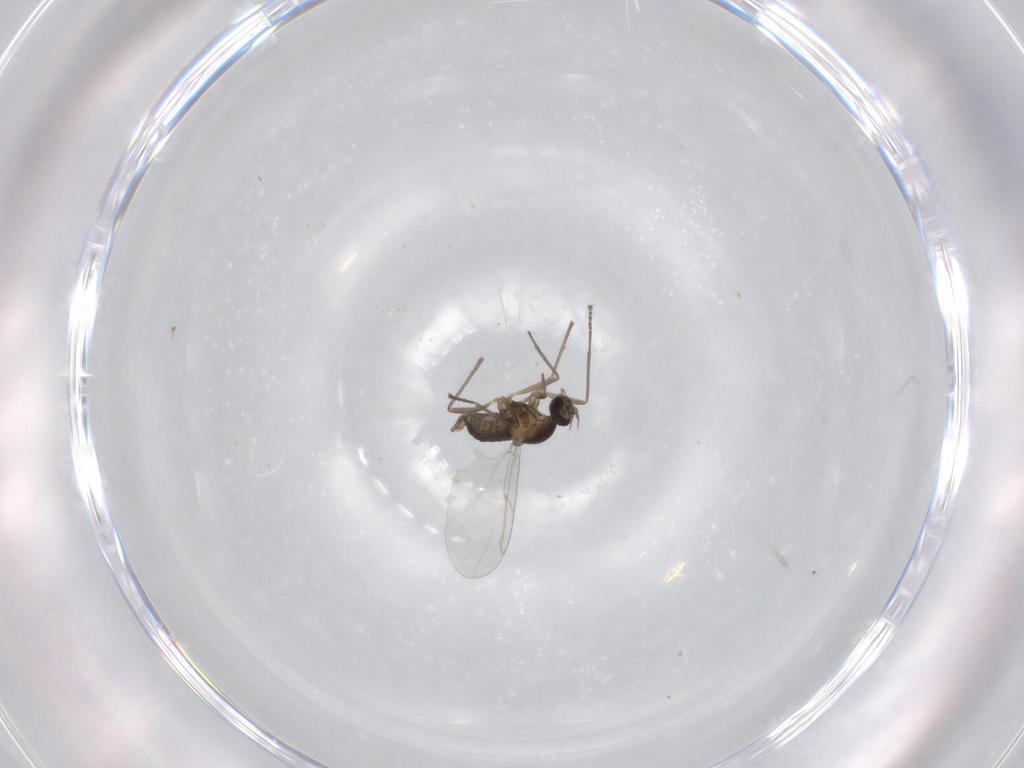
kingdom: Animalia
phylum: Arthropoda
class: Insecta
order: Diptera
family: Cecidomyiidae
